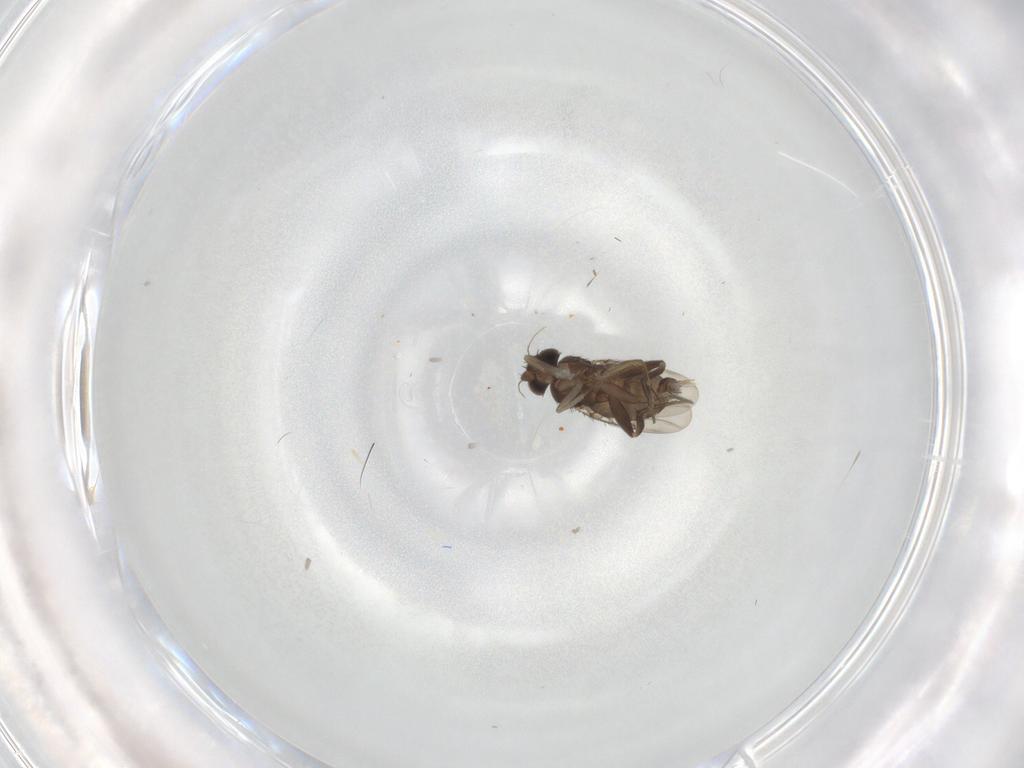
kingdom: Animalia
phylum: Arthropoda
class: Insecta
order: Diptera
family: Phoridae
